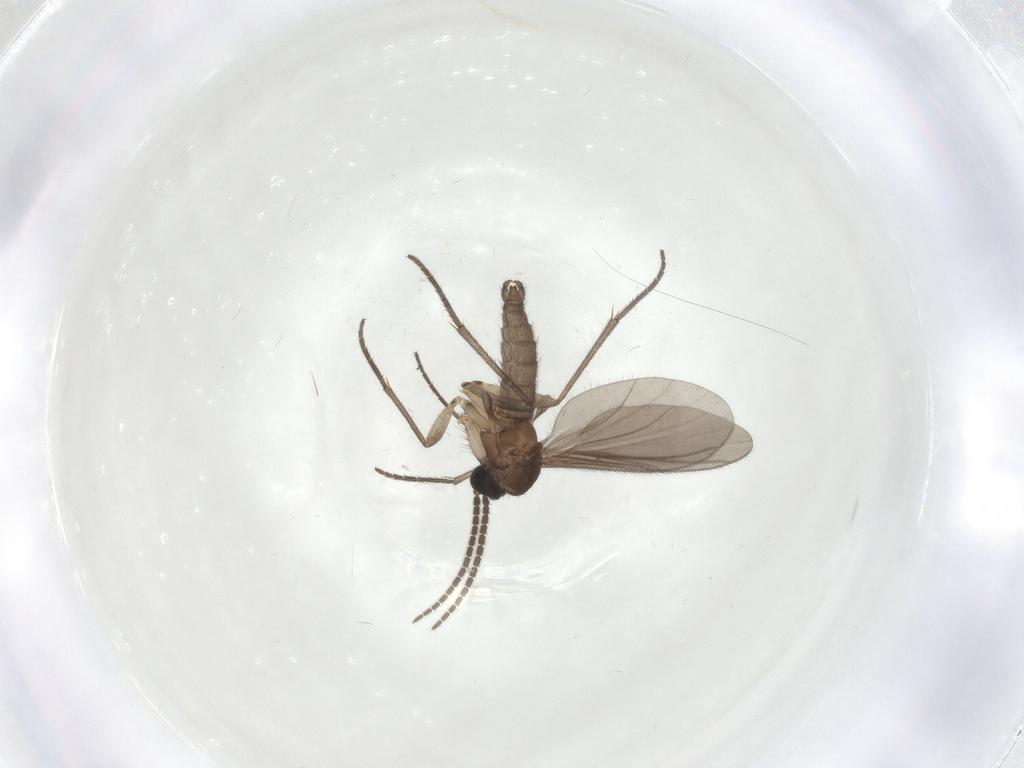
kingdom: Animalia
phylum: Arthropoda
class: Insecta
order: Diptera
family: Sciaridae
